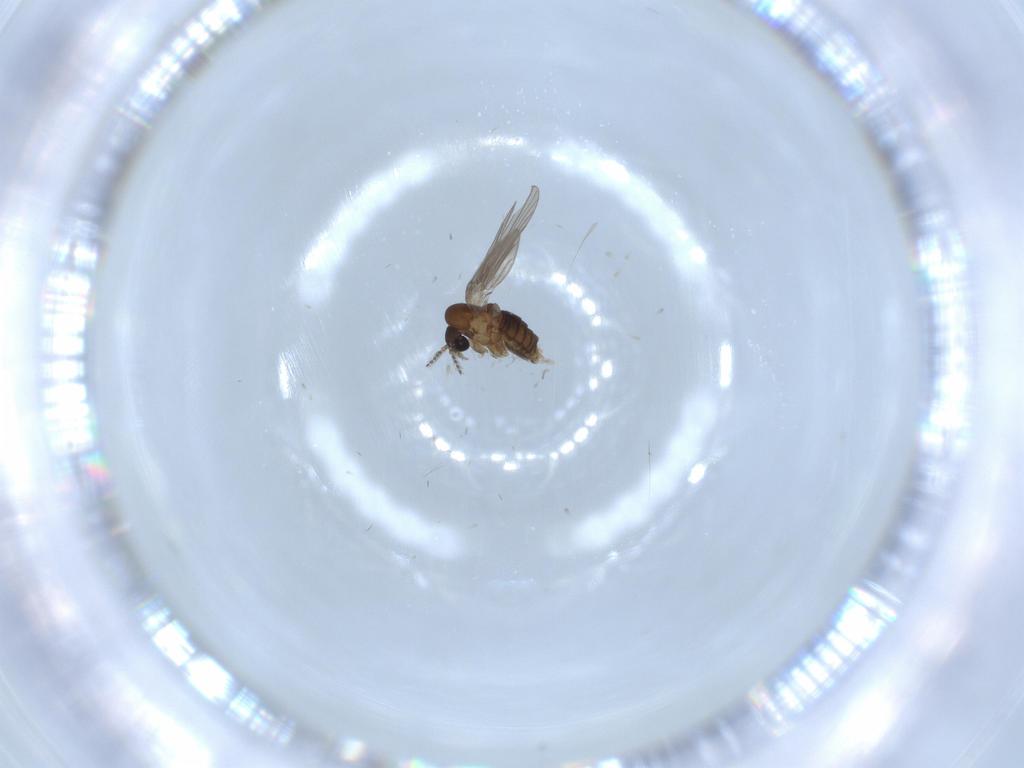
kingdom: Animalia
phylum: Arthropoda
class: Insecta
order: Diptera
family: Psychodidae
